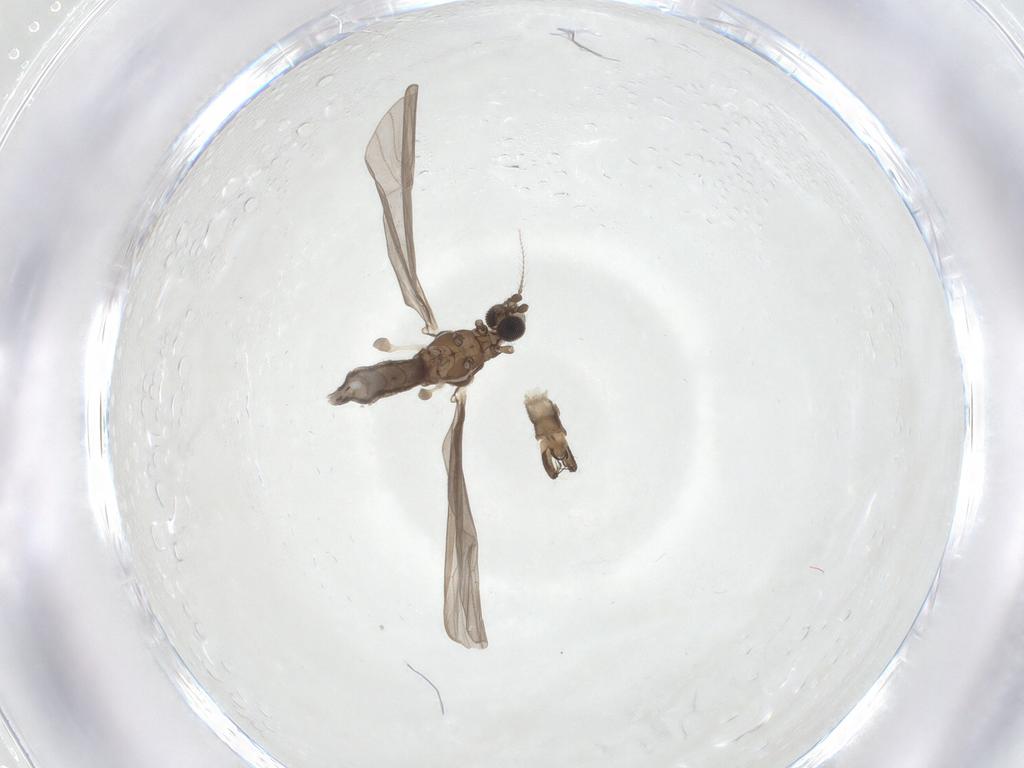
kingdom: Animalia
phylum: Arthropoda
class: Insecta
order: Diptera
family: Limoniidae
